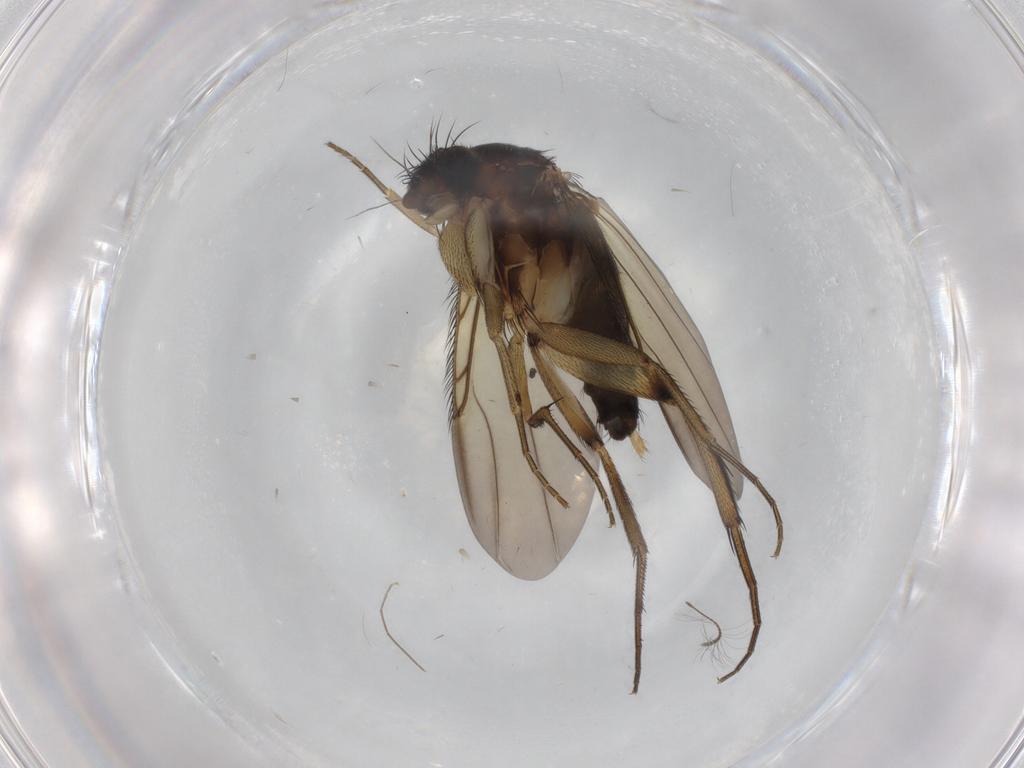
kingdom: Animalia
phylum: Arthropoda
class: Insecta
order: Diptera
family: Phoridae
